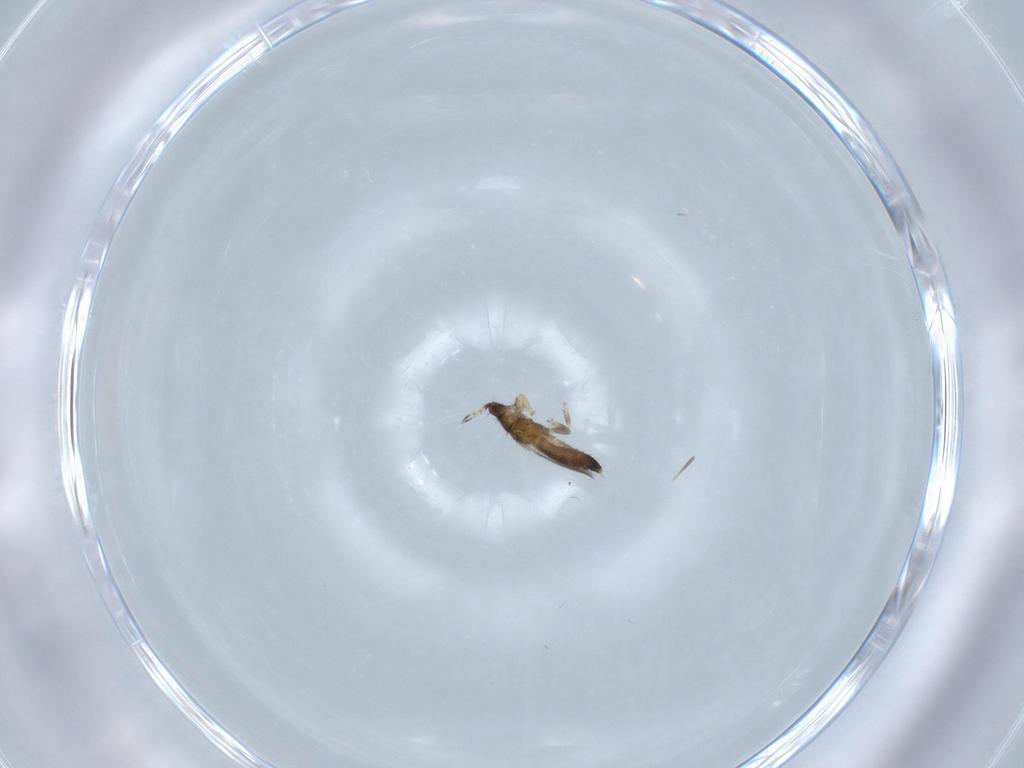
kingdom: Animalia
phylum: Arthropoda
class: Insecta
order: Thysanoptera
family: Thripidae
